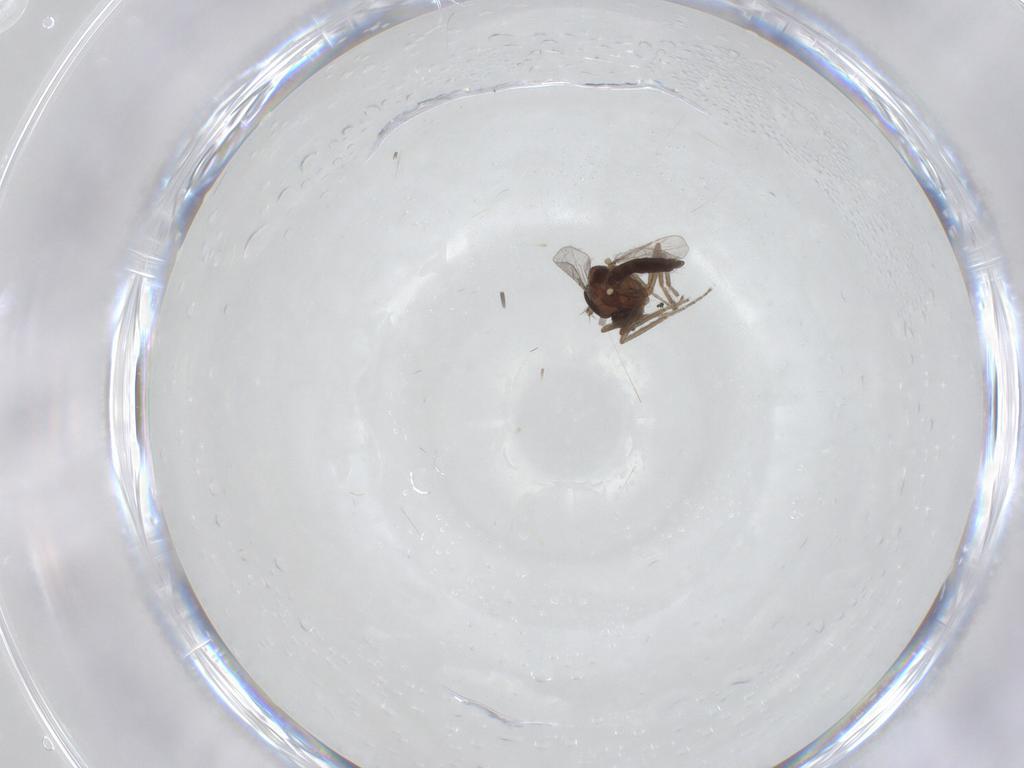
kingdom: Animalia
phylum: Arthropoda
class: Insecta
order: Diptera
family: Ceratopogonidae
